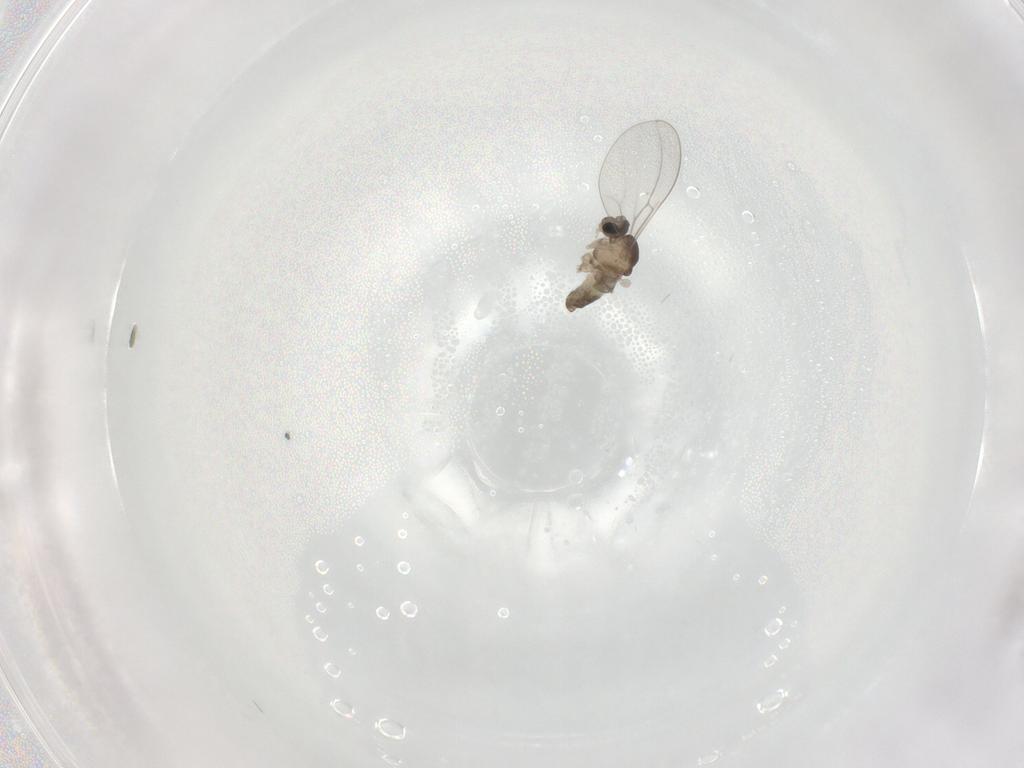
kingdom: Animalia
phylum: Arthropoda
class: Insecta
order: Diptera
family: Cecidomyiidae
